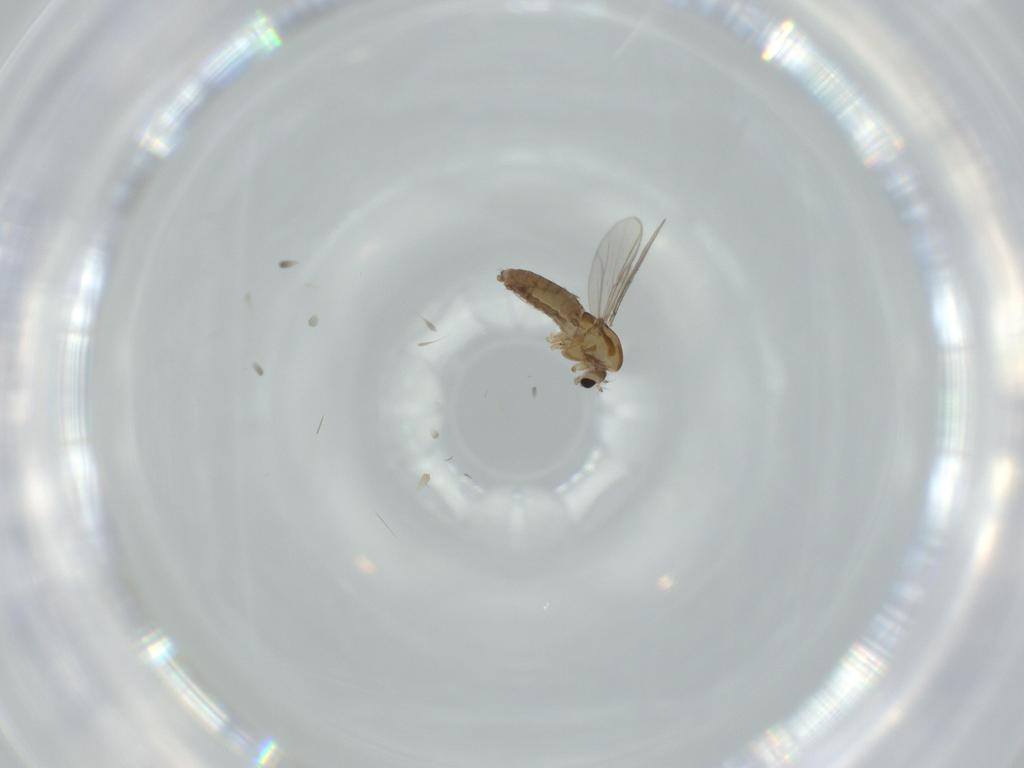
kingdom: Animalia
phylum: Arthropoda
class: Insecta
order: Diptera
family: Chironomidae
